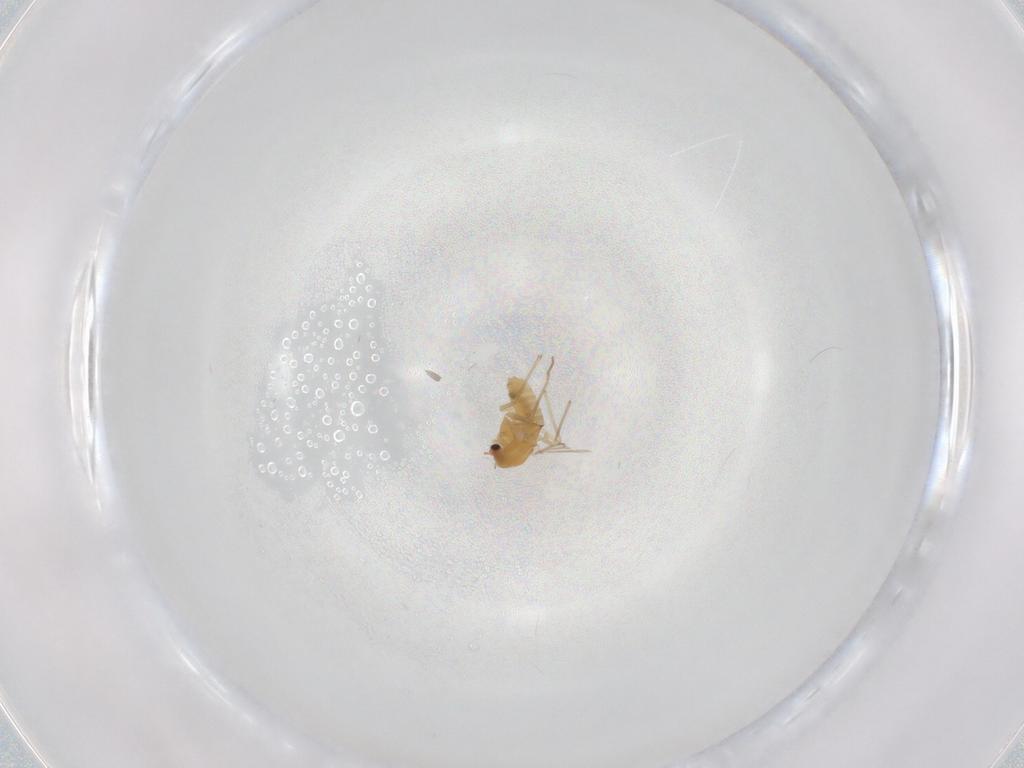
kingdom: Animalia
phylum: Arthropoda
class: Insecta
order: Diptera
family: Chironomidae
